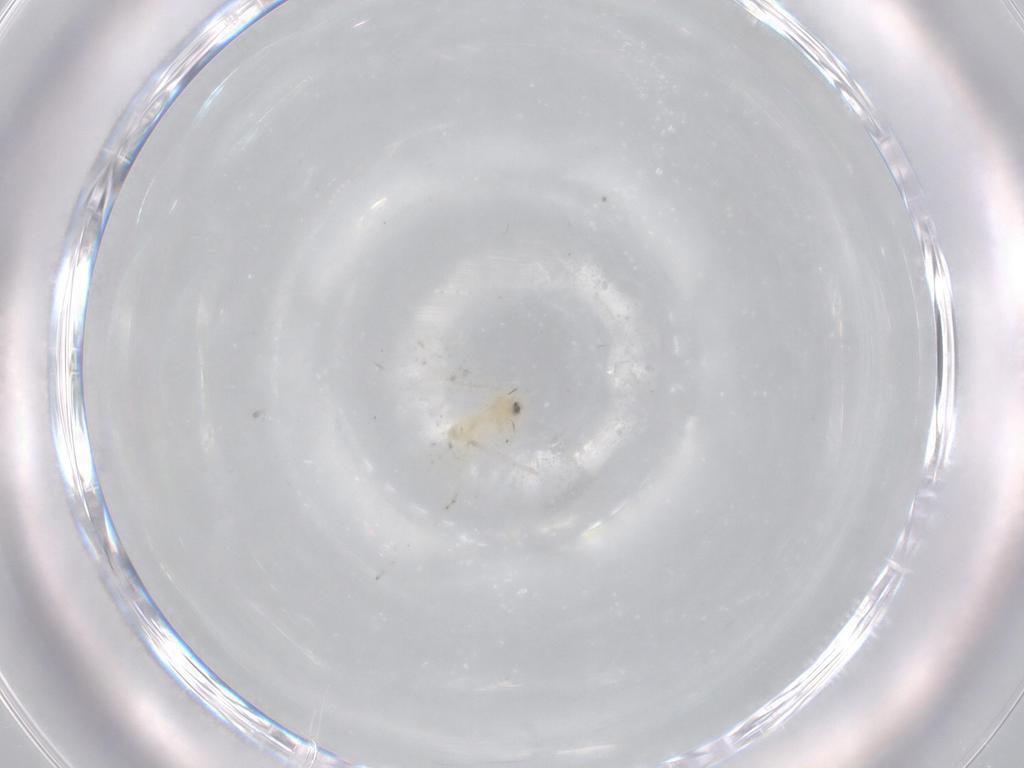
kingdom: Animalia
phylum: Arthropoda
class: Insecta
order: Hemiptera
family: Aleyrodidae
